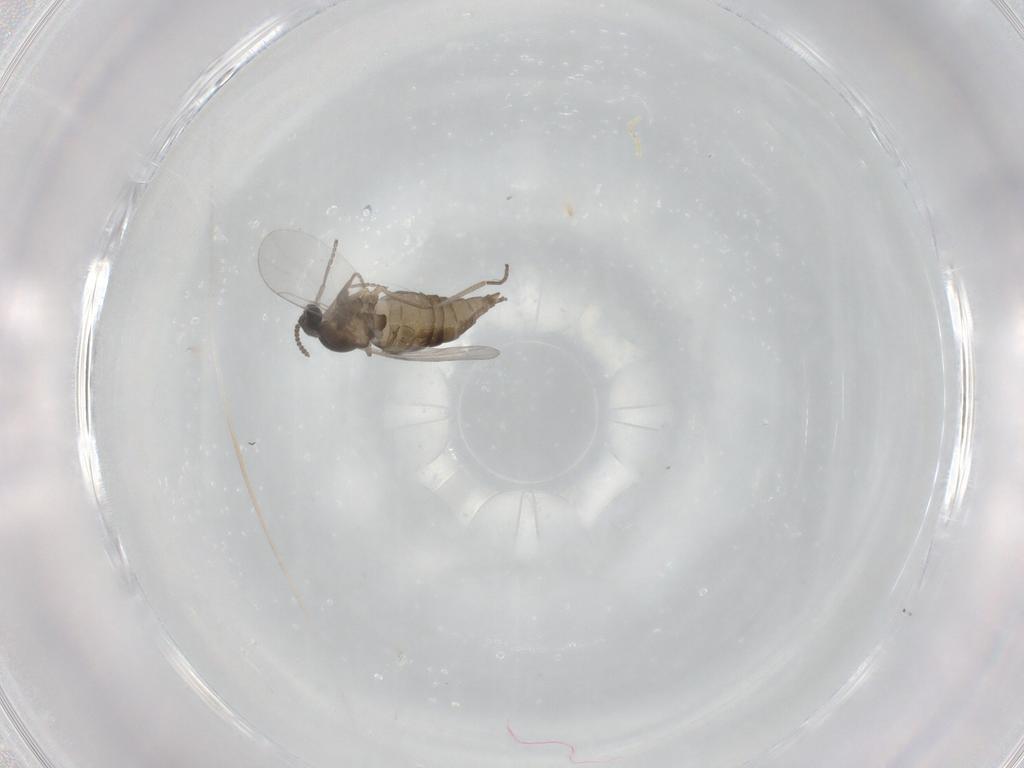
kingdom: Animalia
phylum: Arthropoda
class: Insecta
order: Diptera
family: Cecidomyiidae
